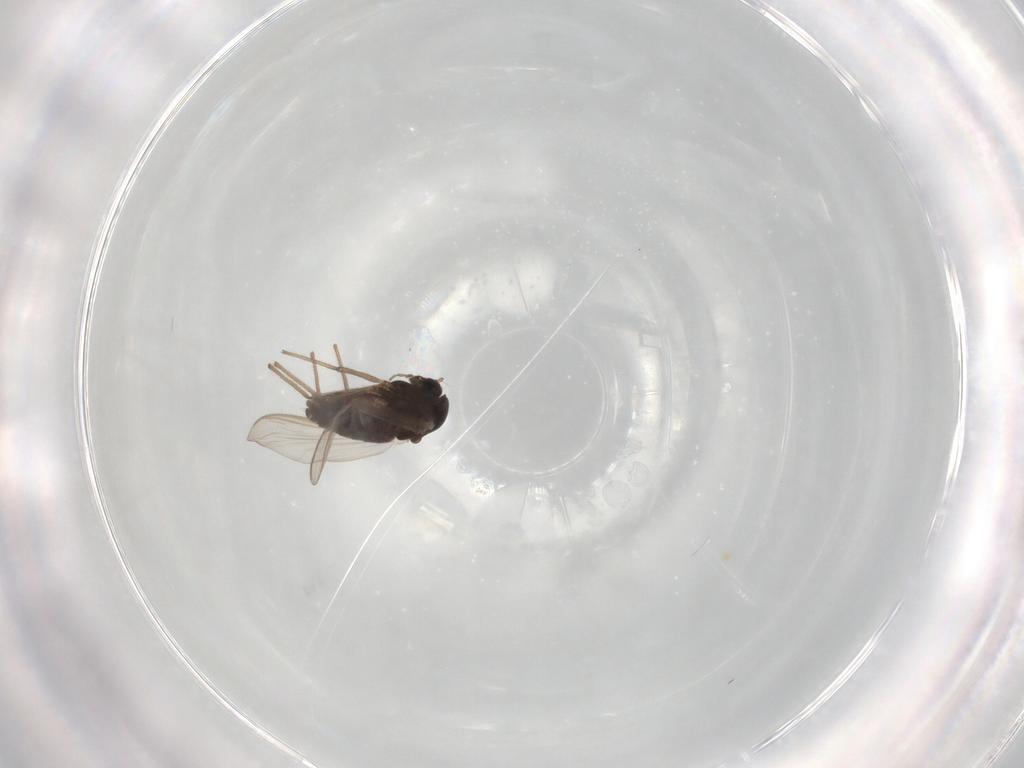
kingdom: Animalia
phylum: Arthropoda
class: Insecta
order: Diptera
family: Chironomidae
